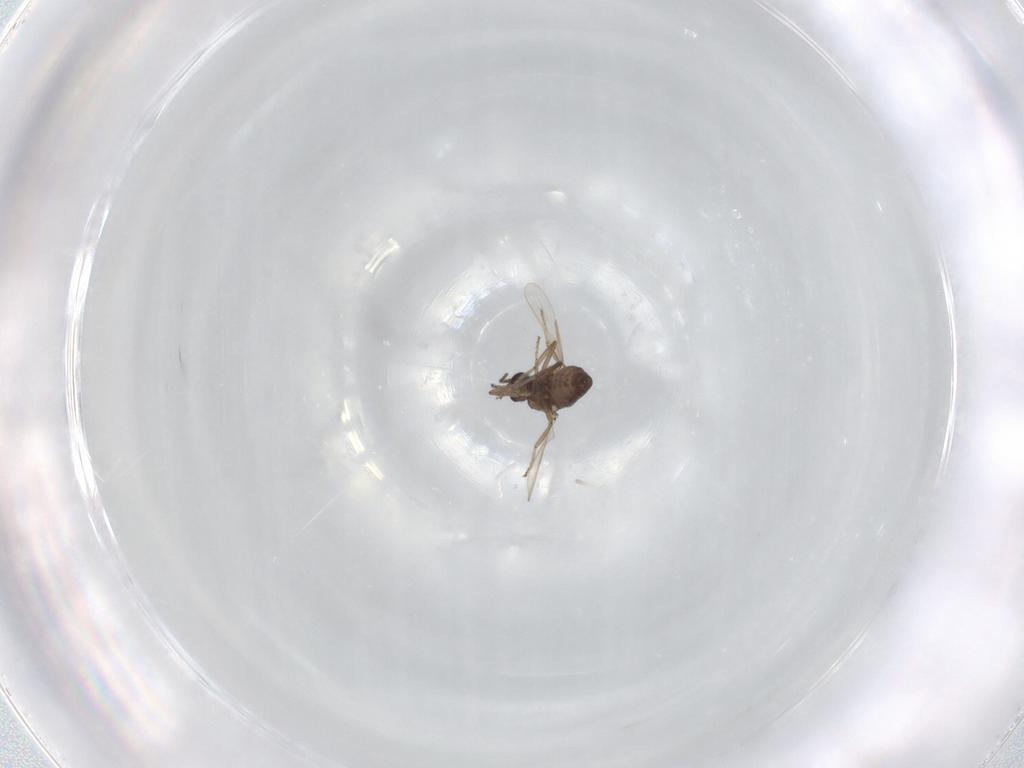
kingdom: Animalia
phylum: Arthropoda
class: Insecta
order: Diptera
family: Ceratopogonidae
